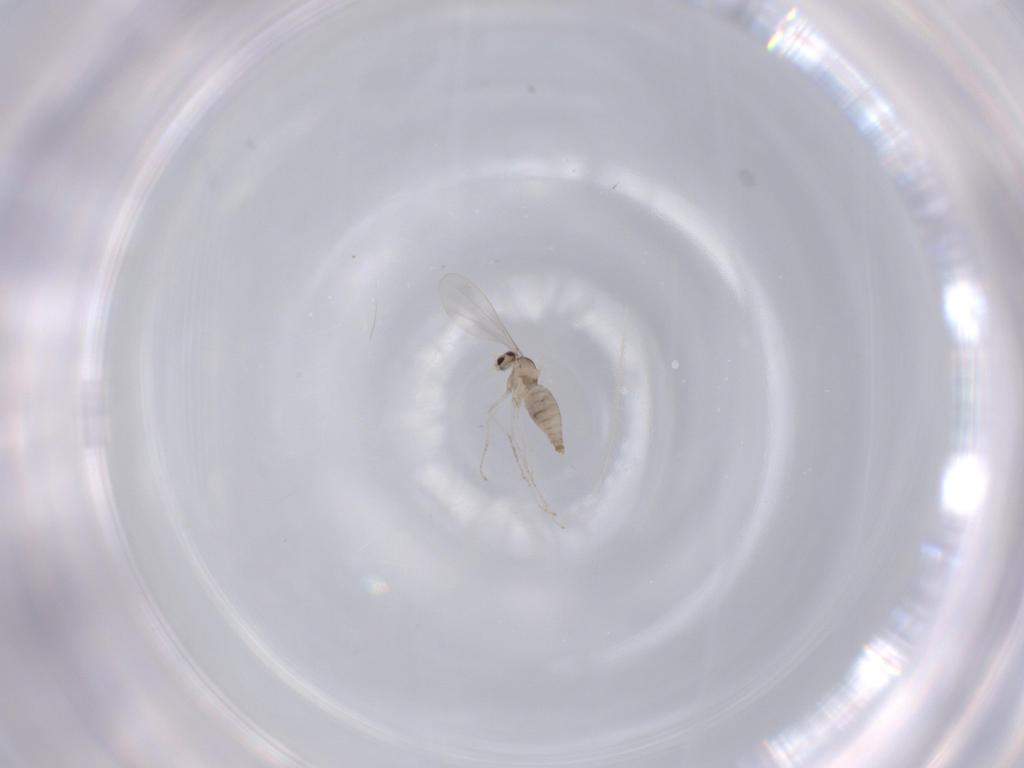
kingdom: Animalia
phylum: Arthropoda
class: Insecta
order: Diptera
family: Cecidomyiidae
